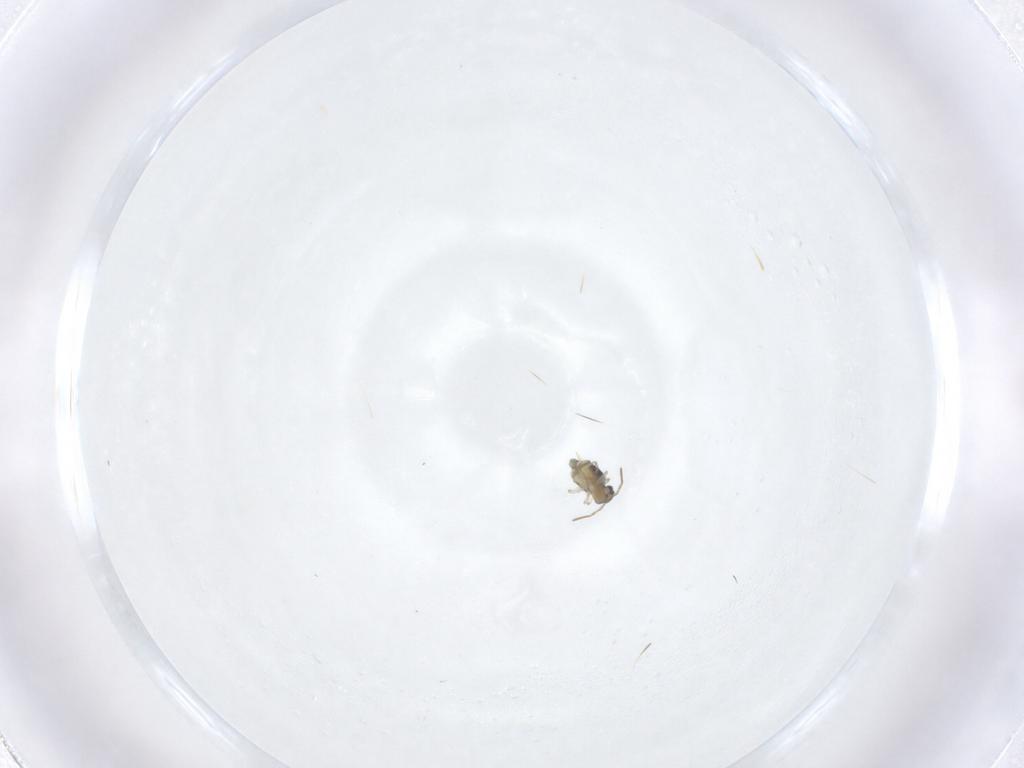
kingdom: Animalia
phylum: Arthropoda
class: Collembola
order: Symphypleona
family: Bourletiellidae
